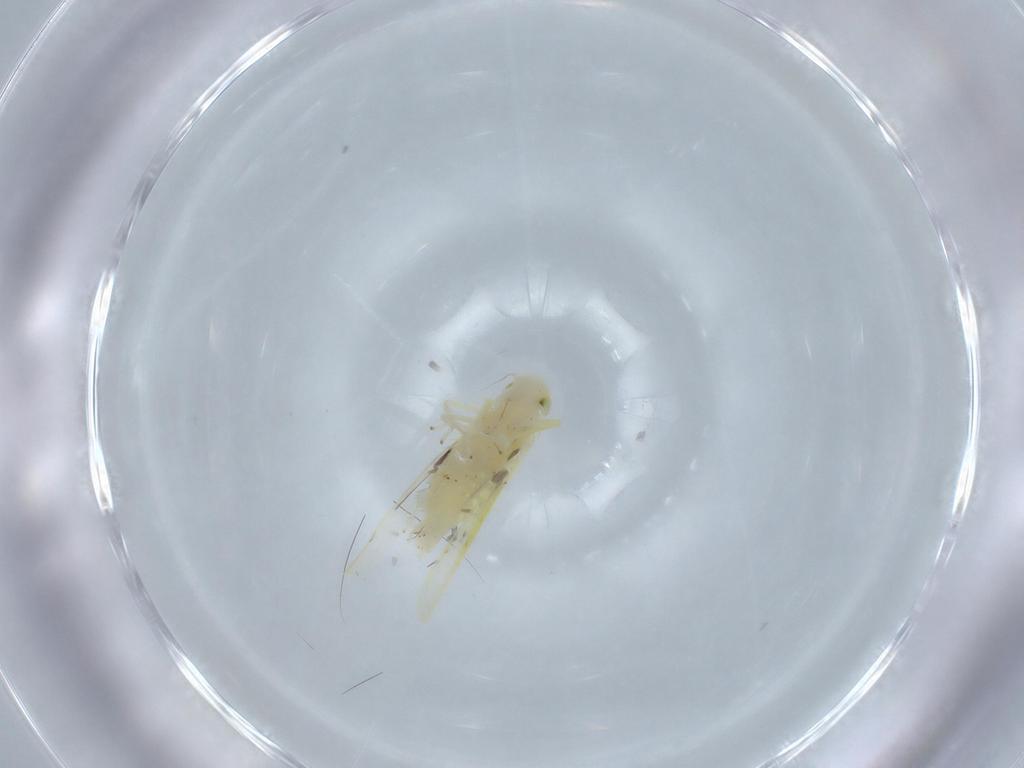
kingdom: Animalia
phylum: Arthropoda
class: Insecta
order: Hemiptera
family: Cicadellidae
